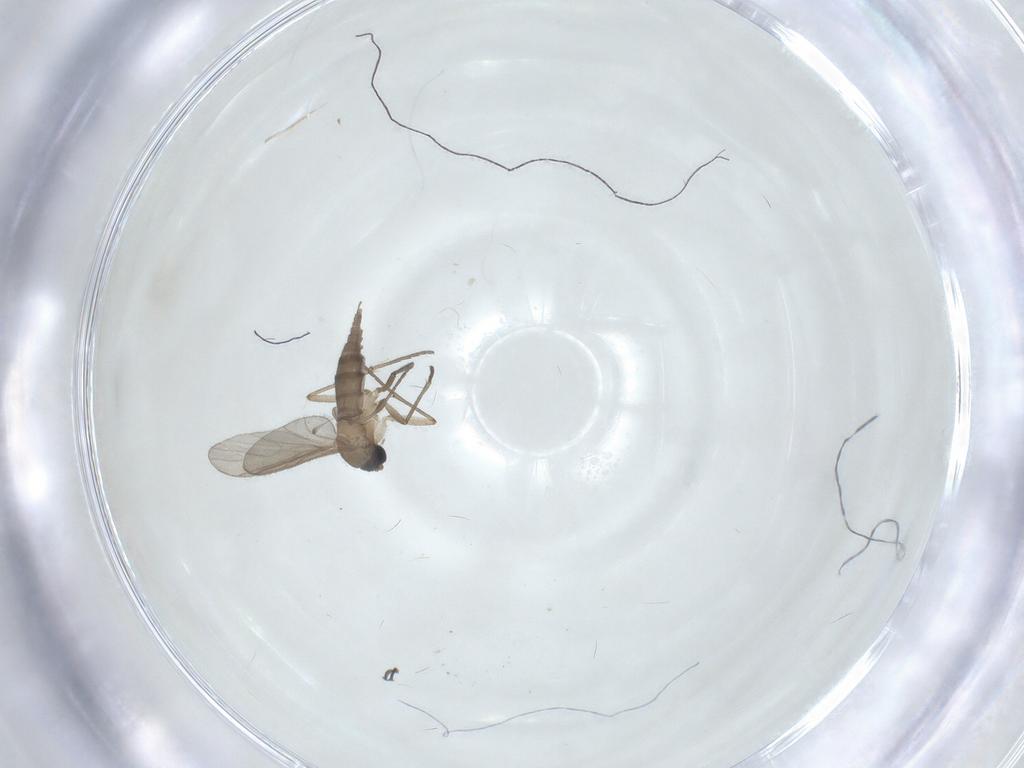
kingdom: Animalia
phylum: Arthropoda
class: Insecta
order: Diptera
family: Sciaridae
